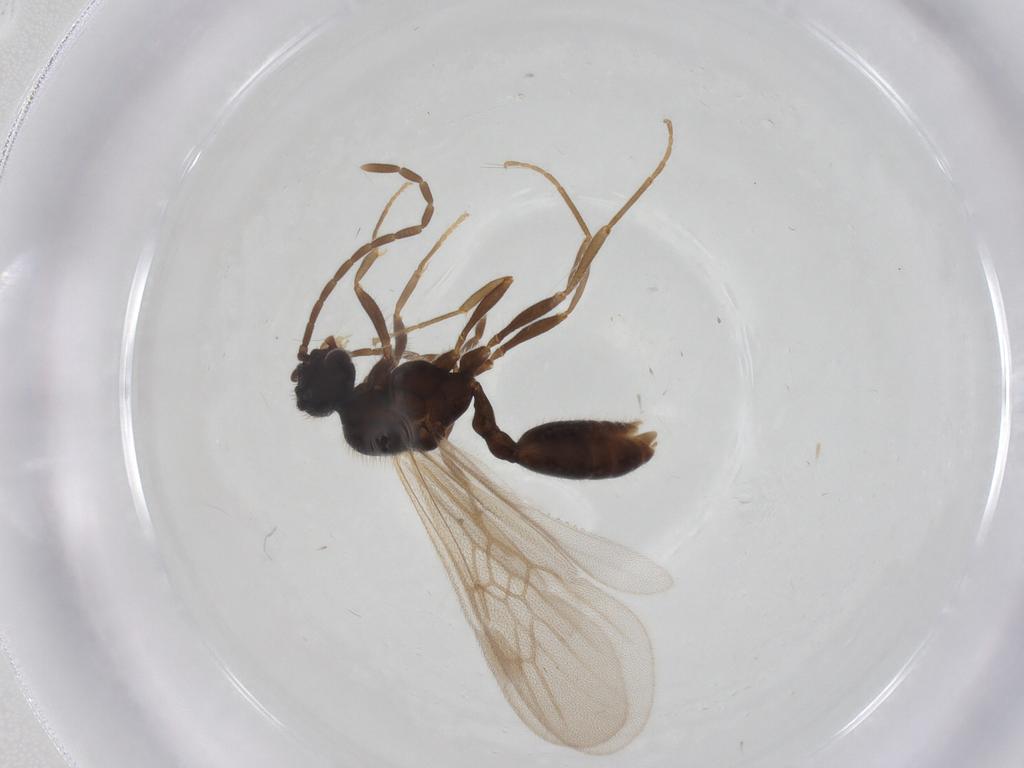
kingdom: Animalia
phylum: Arthropoda
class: Insecta
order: Hymenoptera
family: Formicidae
